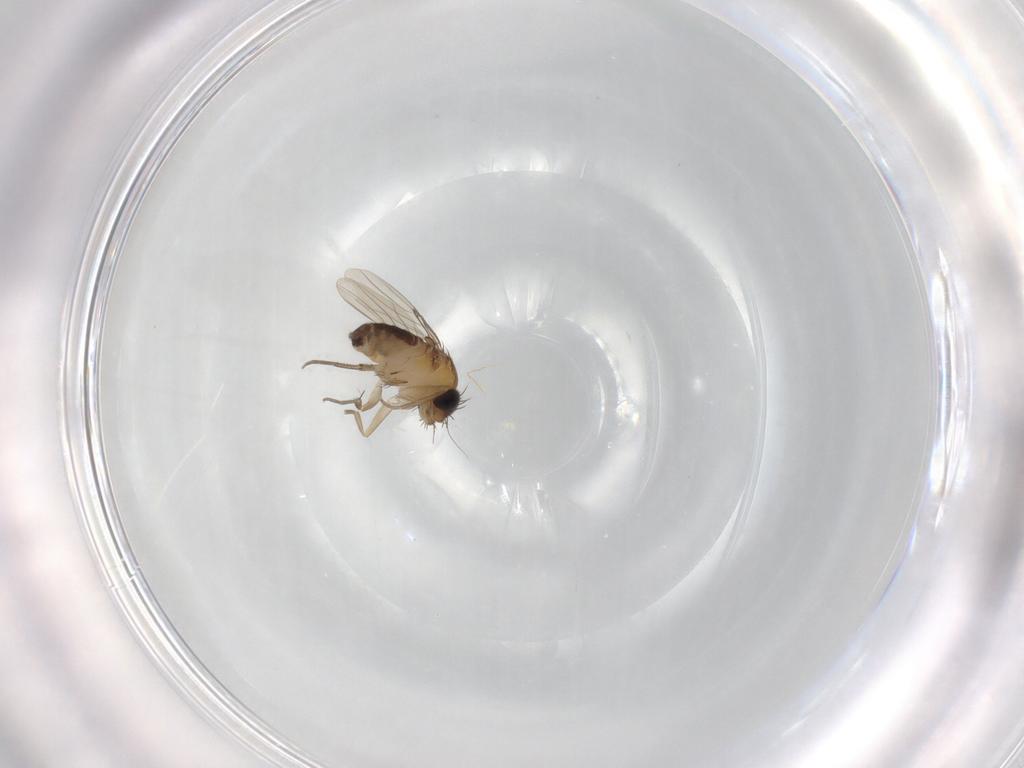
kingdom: Animalia
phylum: Arthropoda
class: Insecta
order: Diptera
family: Phoridae
